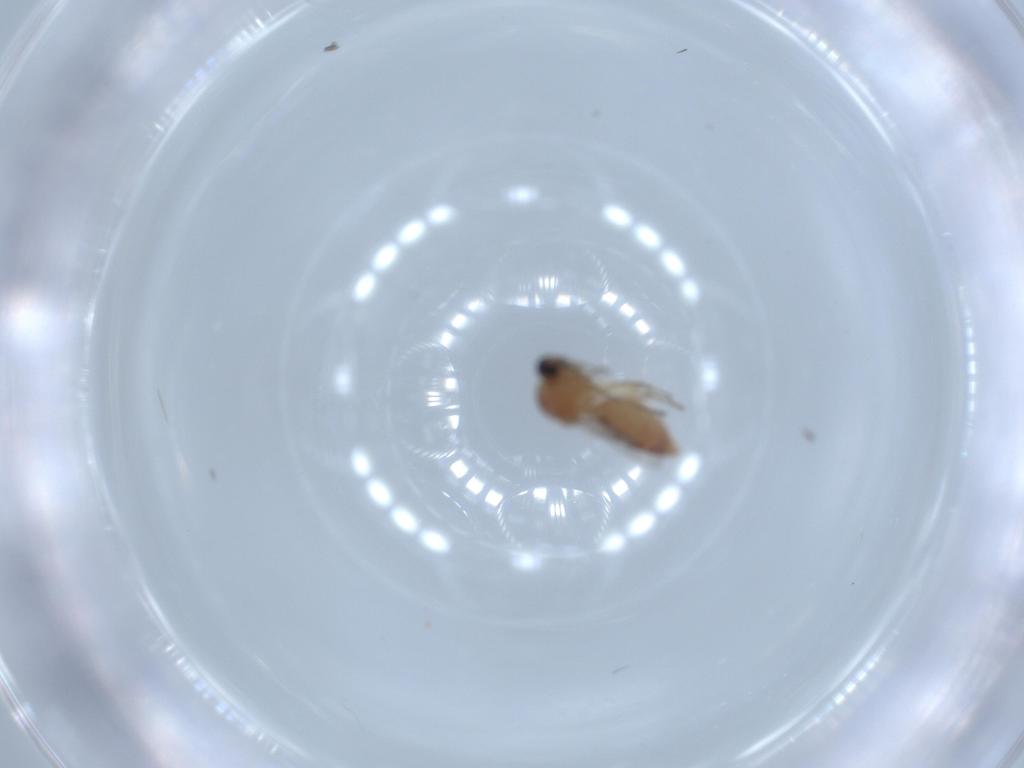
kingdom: Animalia
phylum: Arthropoda
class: Insecta
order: Diptera
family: Ceratopogonidae
